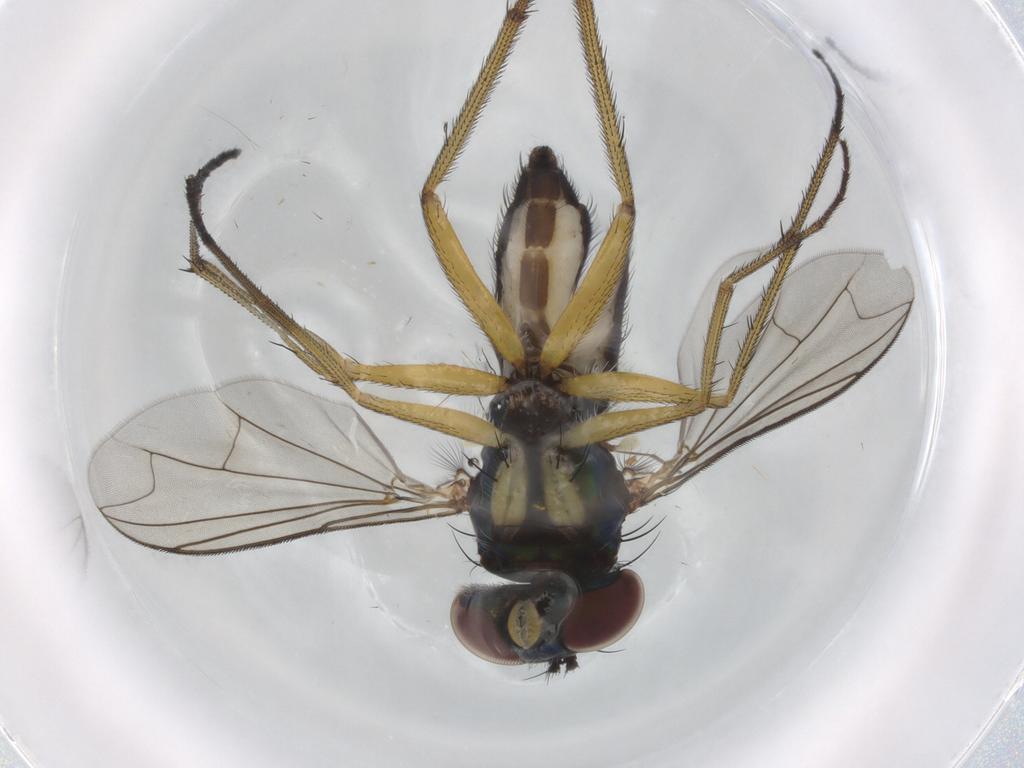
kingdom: Animalia
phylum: Arthropoda
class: Insecta
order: Diptera
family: Dolichopodidae
